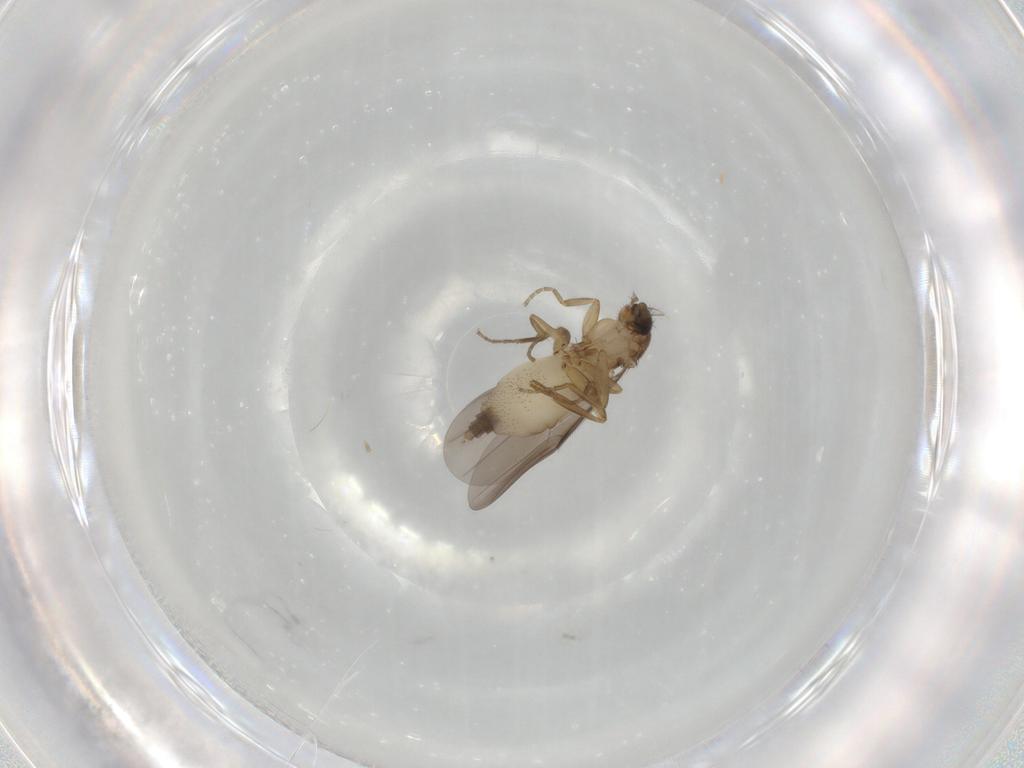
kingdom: Animalia
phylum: Arthropoda
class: Insecta
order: Diptera
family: Phoridae
